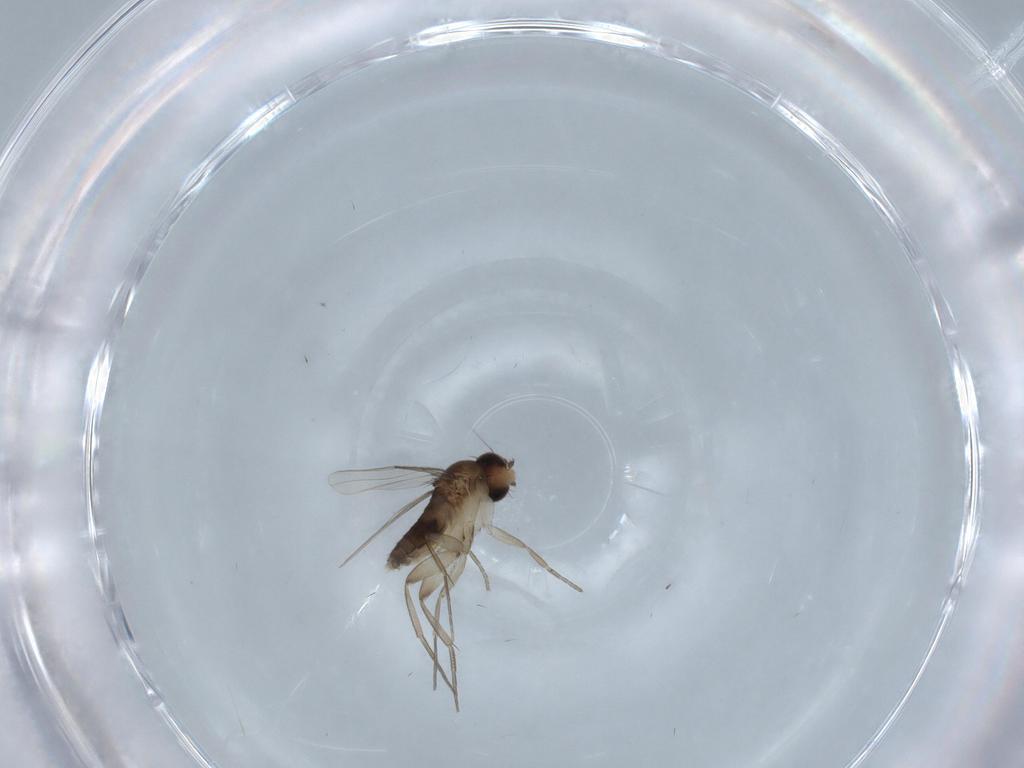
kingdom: Animalia
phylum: Arthropoda
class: Insecta
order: Diptera
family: Phoridae
